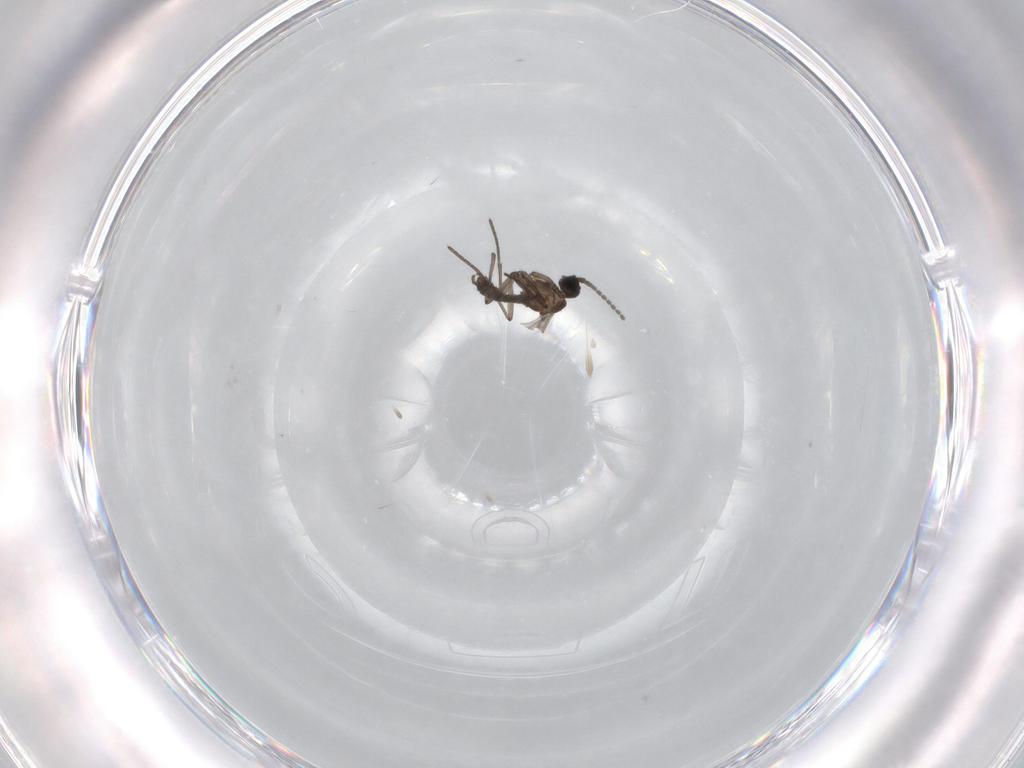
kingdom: Animalia
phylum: Arthropoda
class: Insecta
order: Diptera
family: Sciaridae
